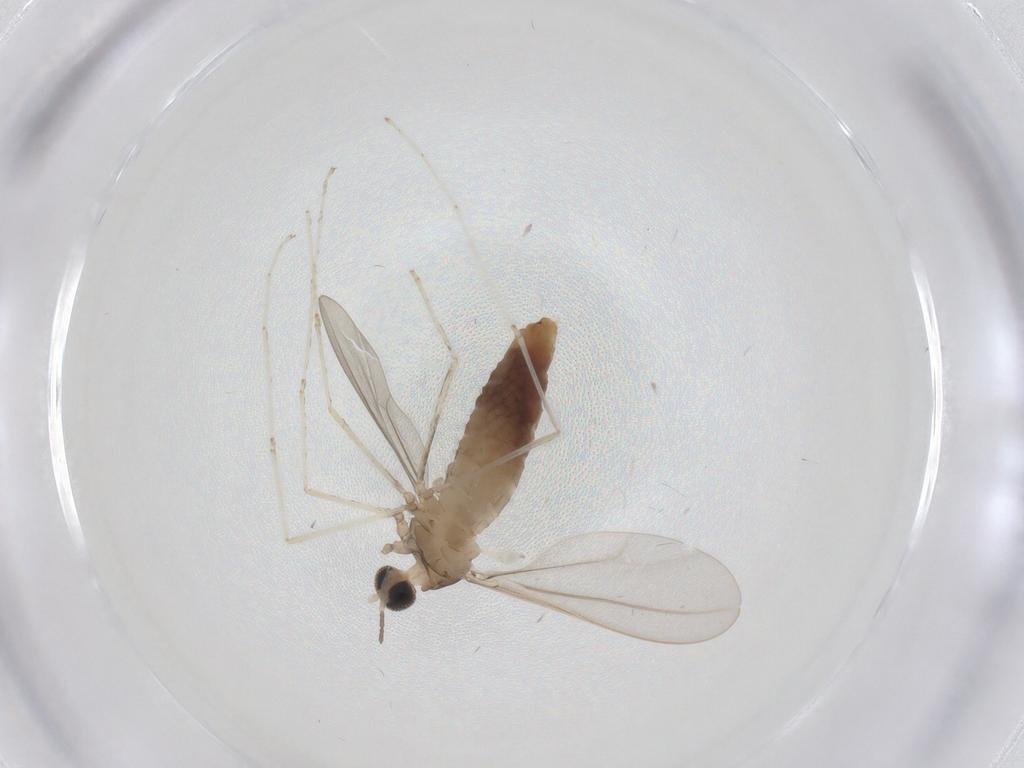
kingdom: Animalia
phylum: Arthropoda
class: Insecta
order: Diptera
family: Cecidomyiidae
